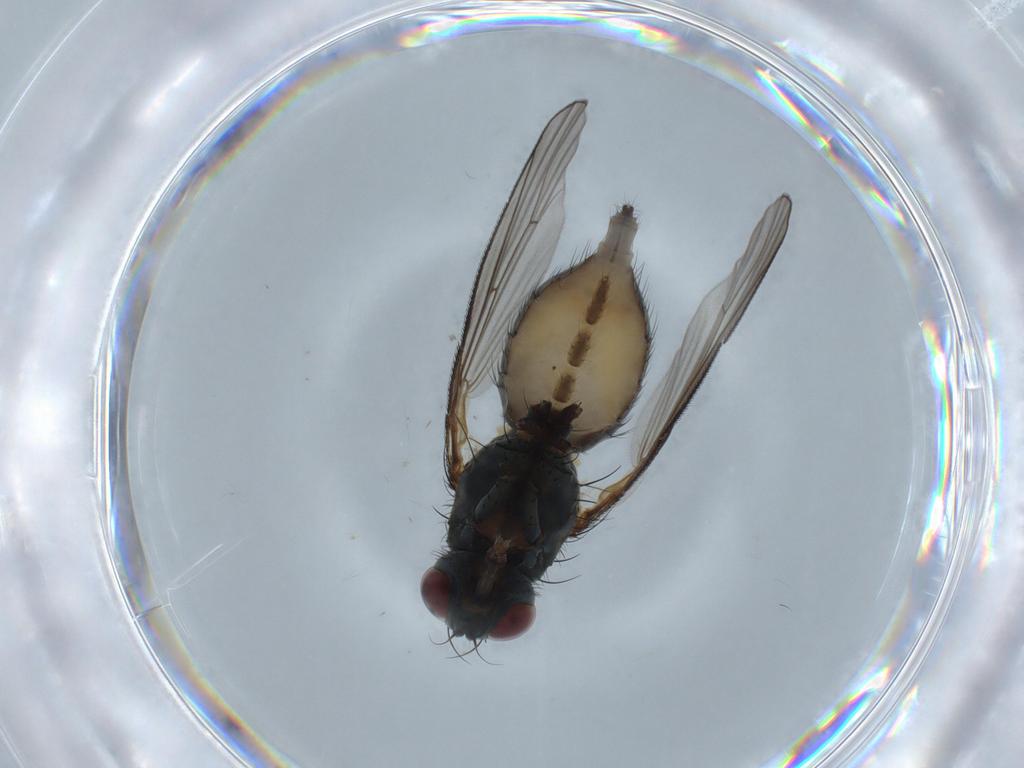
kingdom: Animalia
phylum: Arthropoda
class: Insecta
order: Diptera
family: Muscidae
